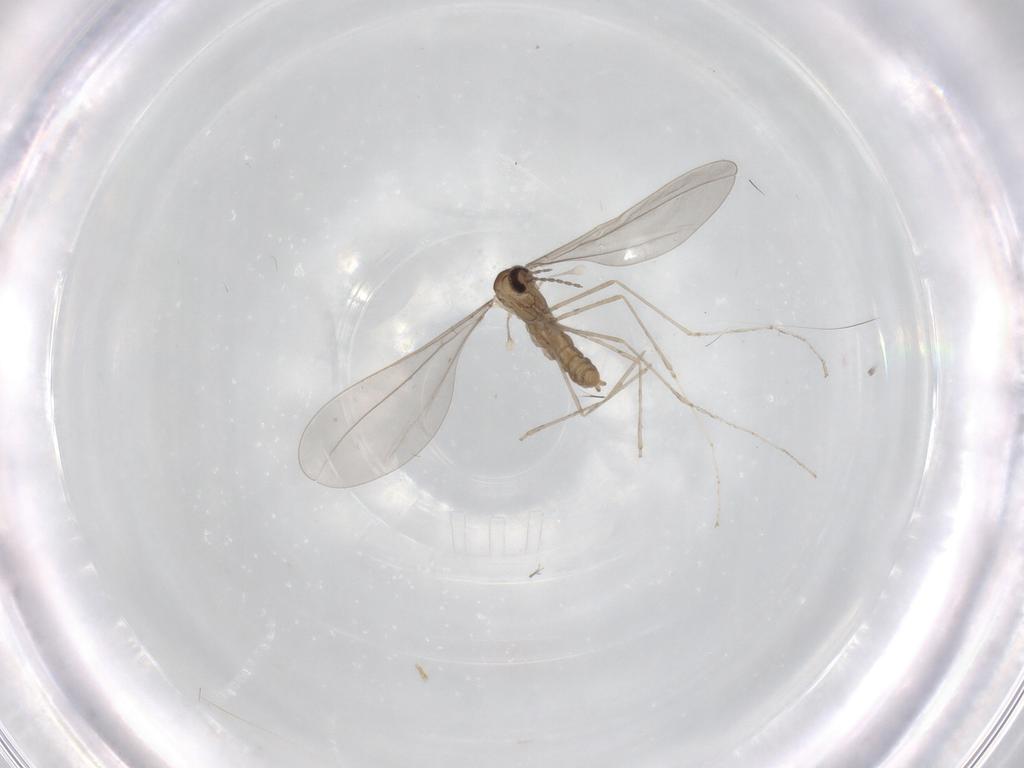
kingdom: Animalia
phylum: Arthropoda
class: Insecta
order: Diptera
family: Cecidomyiidae
